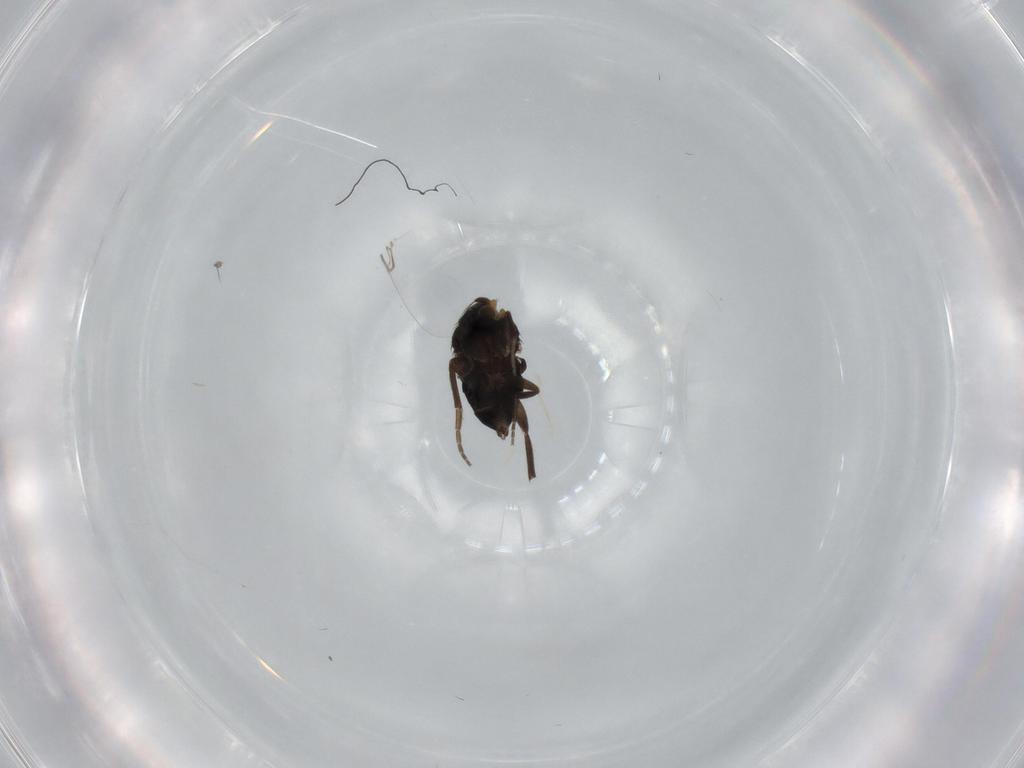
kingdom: Animalia
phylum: Arthropoda
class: Insecta
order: Diptera
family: Phoridae
